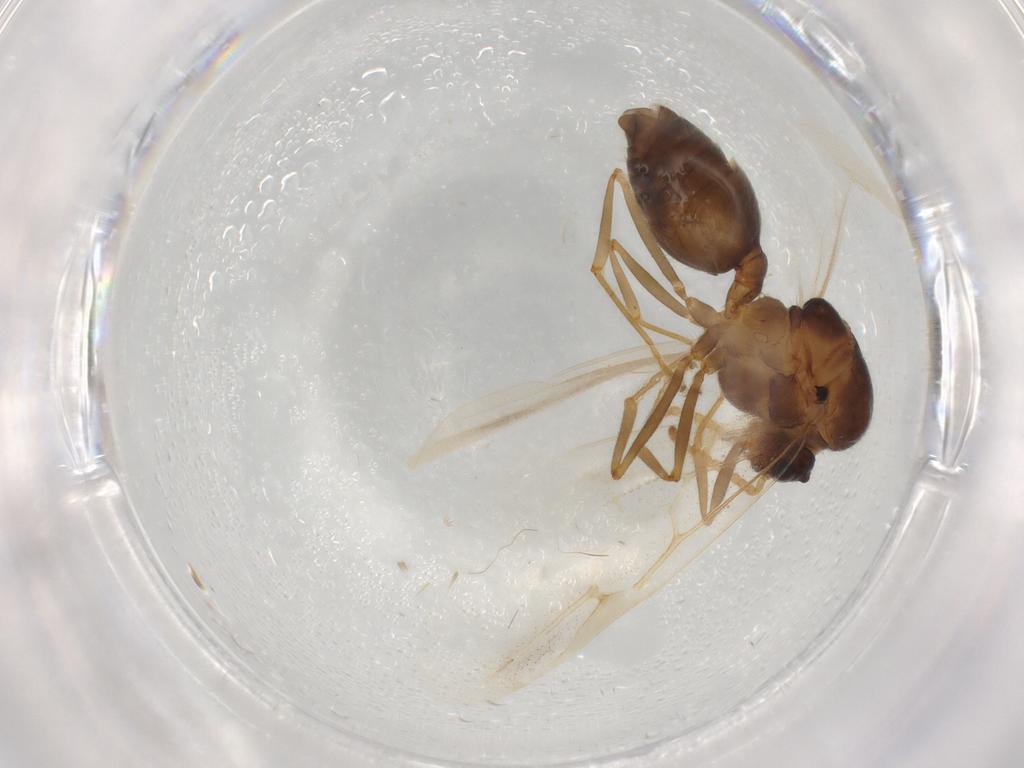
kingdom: Animalia
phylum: Arthropoda
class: Insecta
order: Hymenoptera
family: Formicidae
